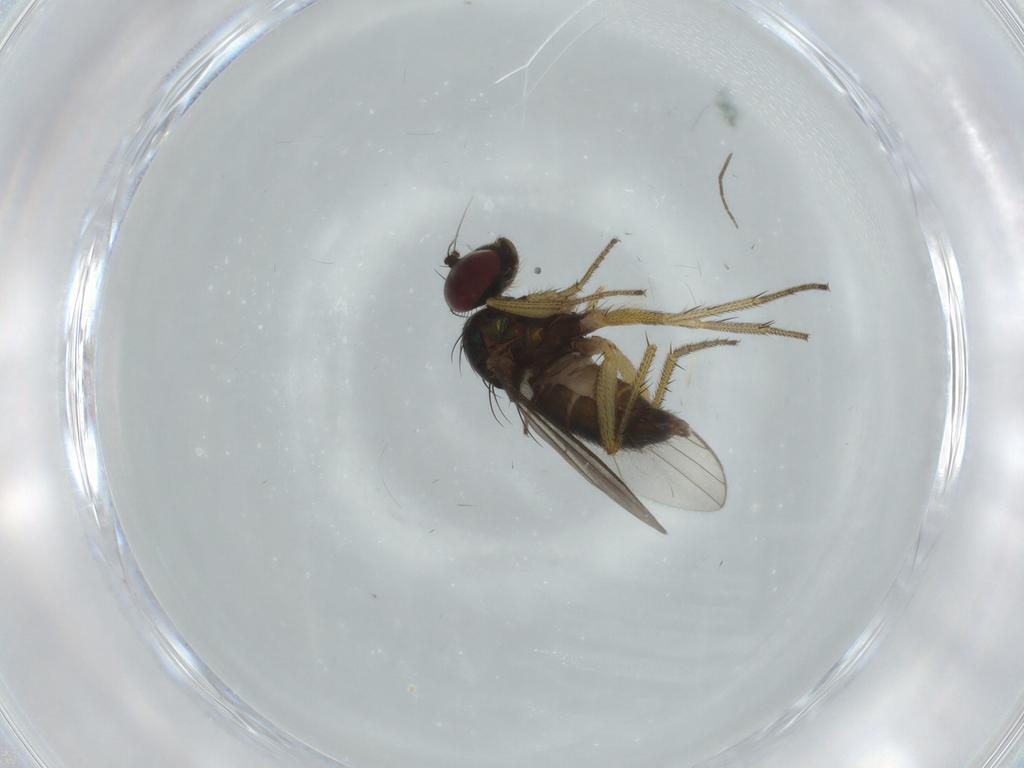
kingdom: Animalia
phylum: Arthropoda
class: Insecta
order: Diptera
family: Dolichopodidae
